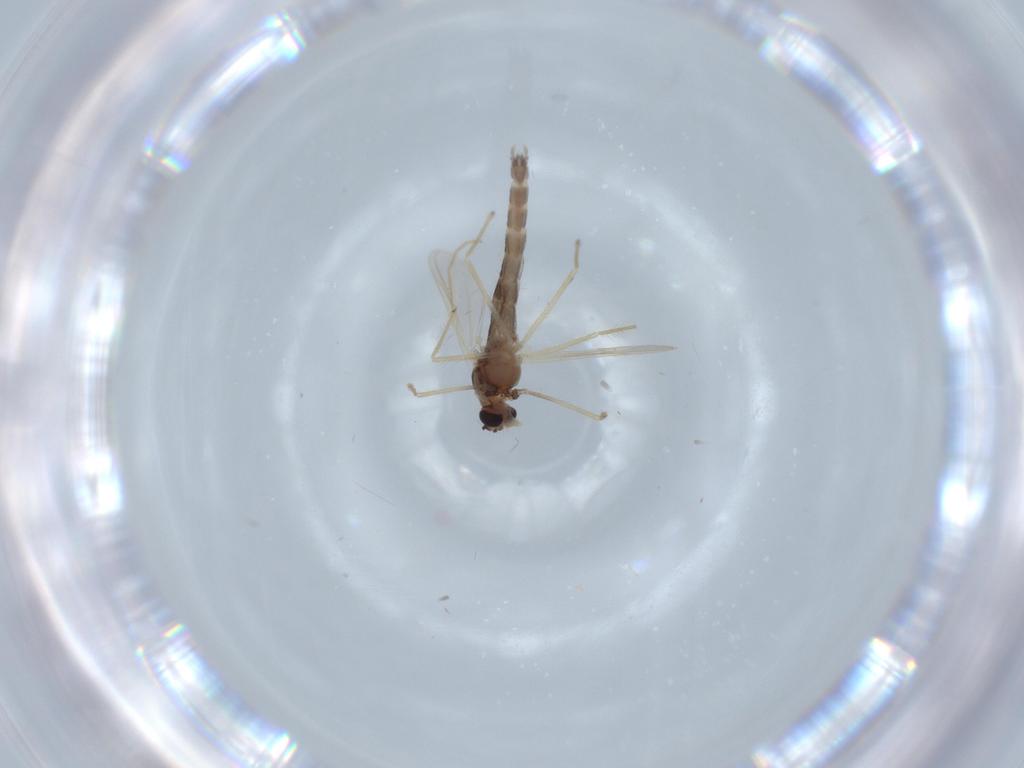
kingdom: Animalia
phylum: Arthropoda
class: Insecta
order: Diptera
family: Chironomidae
